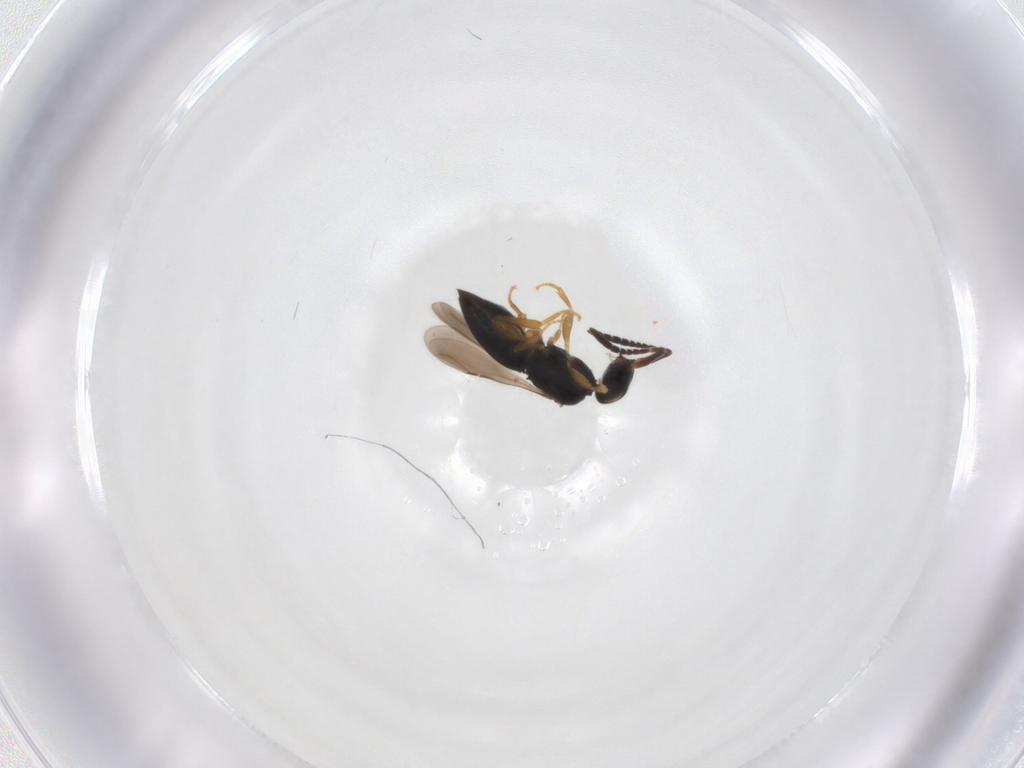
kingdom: Animalia
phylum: Arthropoda
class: Insecta
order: Hymenoptera
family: Ceraphronidae
